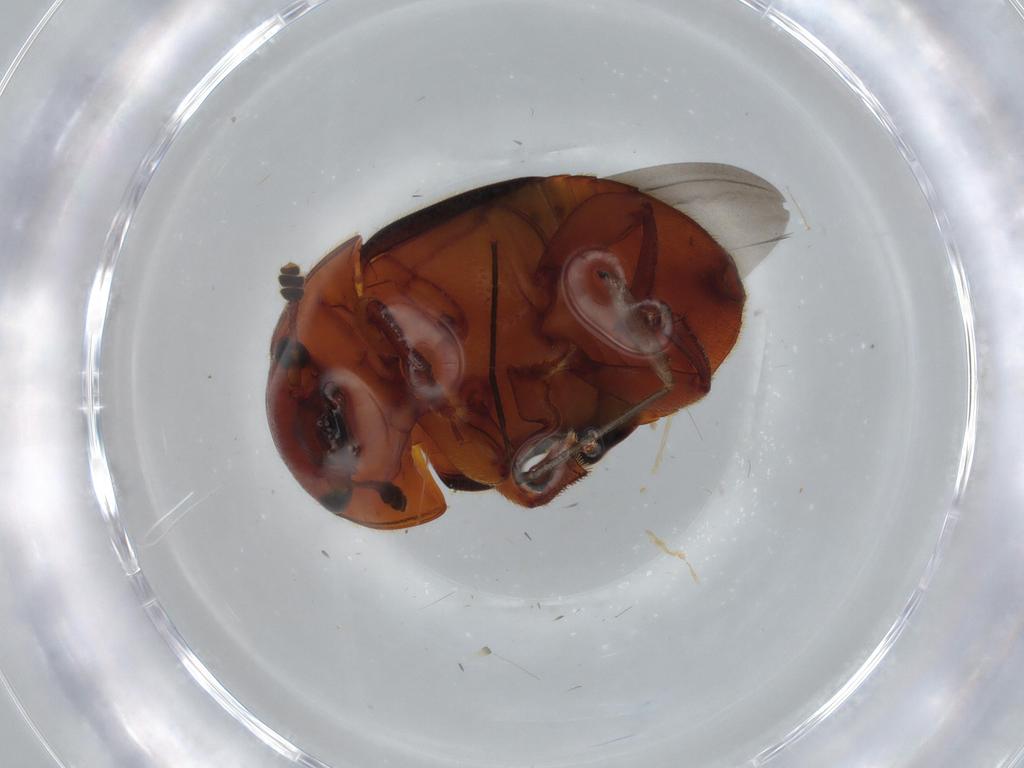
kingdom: Animalia
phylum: Arthropoda
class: Insecta
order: Coleoptera
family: Nitidulidae
